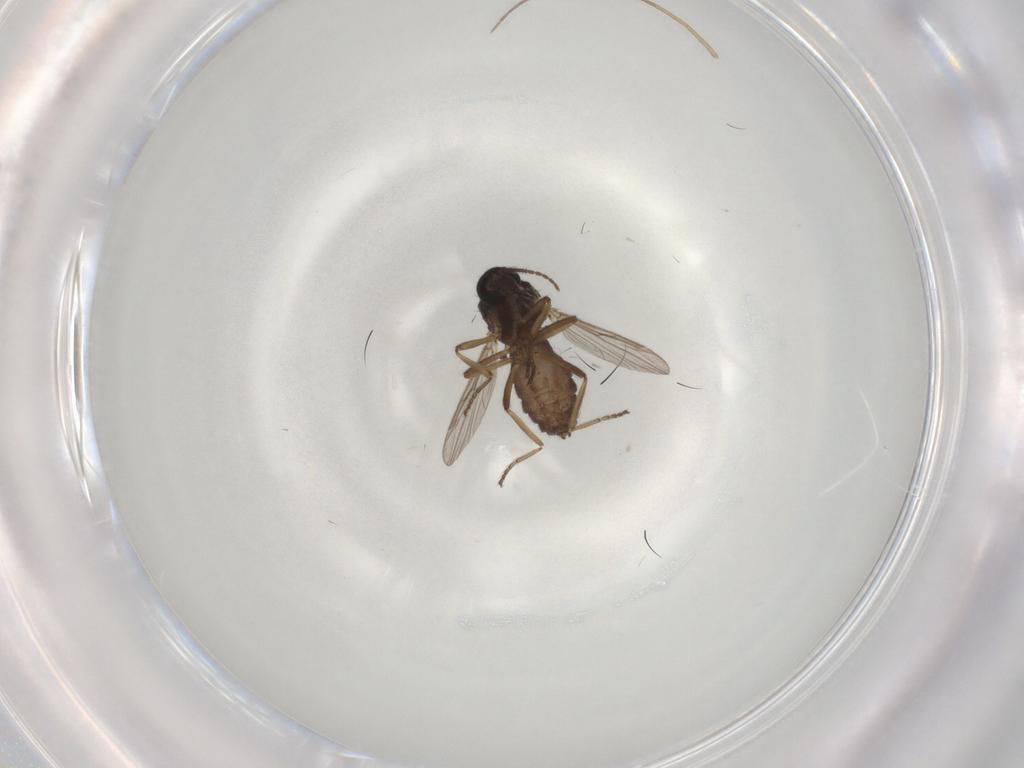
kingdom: Animalia
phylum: Arthropoda
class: Insecta
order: Diptera
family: Ceratopogonidae
